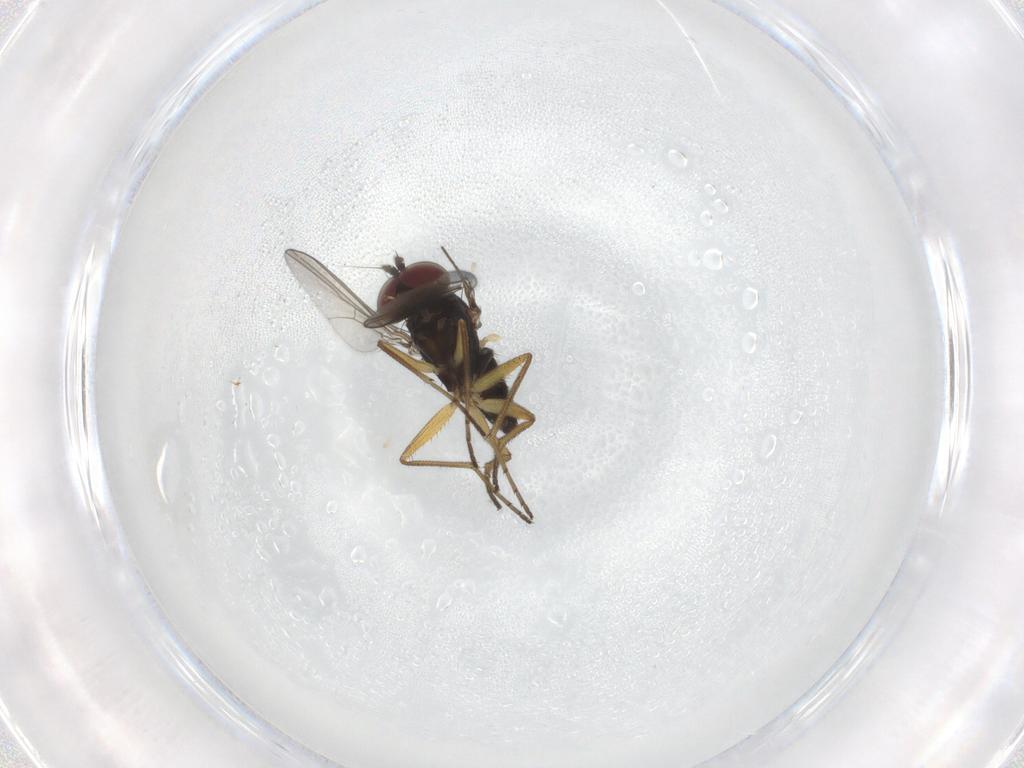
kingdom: Animalia
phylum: Arthropoda
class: Insecta
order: Diptera
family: Dolichopodidae
